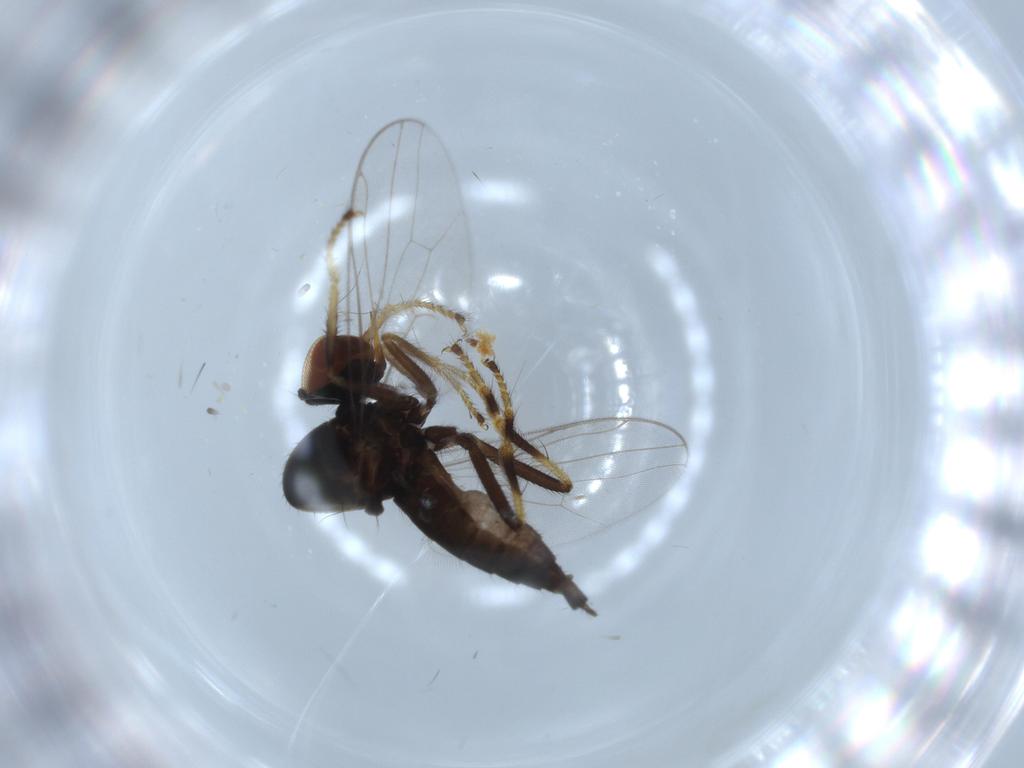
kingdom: Animalia
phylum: Arthropoda
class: Insecta
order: Diptera
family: Hybotidae
